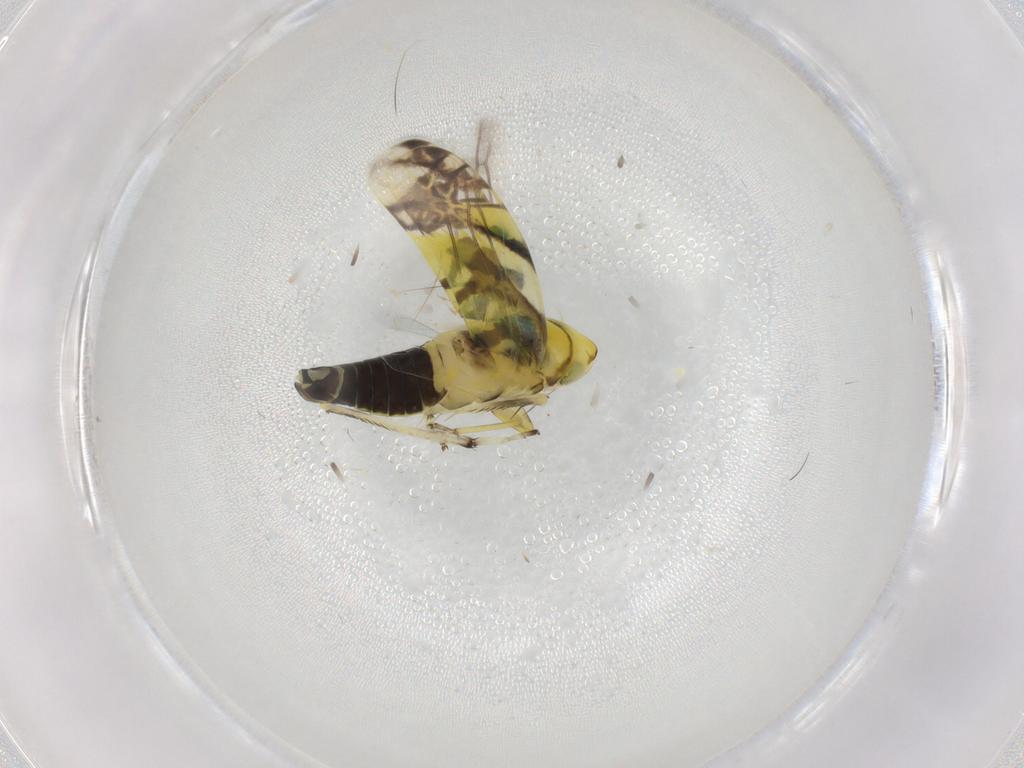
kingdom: Animalia
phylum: Arthropoda
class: Insecta
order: Hemiptera
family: Cicadellidae
